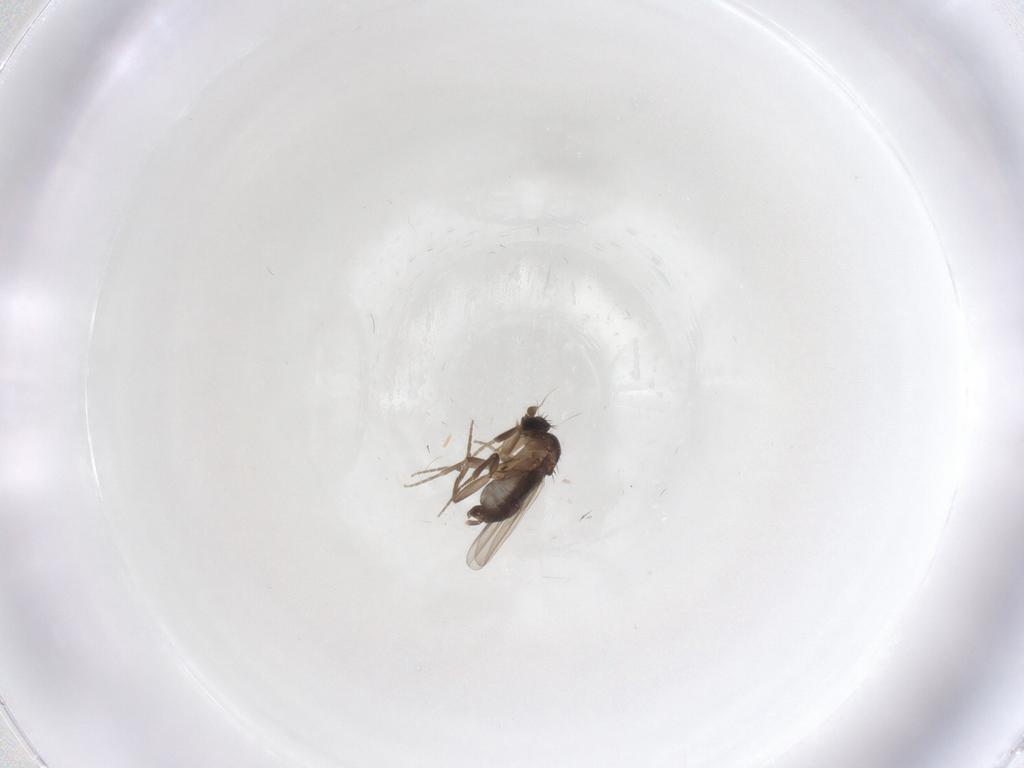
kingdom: Animalia
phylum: Arthropoda
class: Insecta
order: Diptera
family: Phoridae
